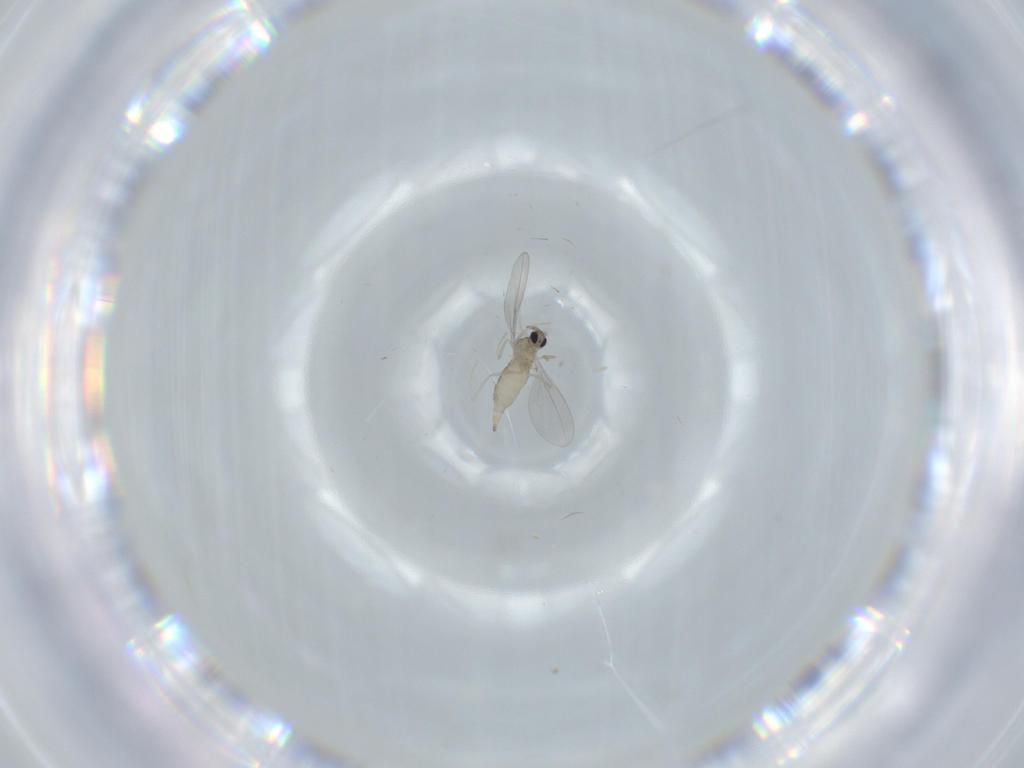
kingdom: Animalia
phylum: Arthropoda
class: Insecta
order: Diptera
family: Cecidomyiidae
